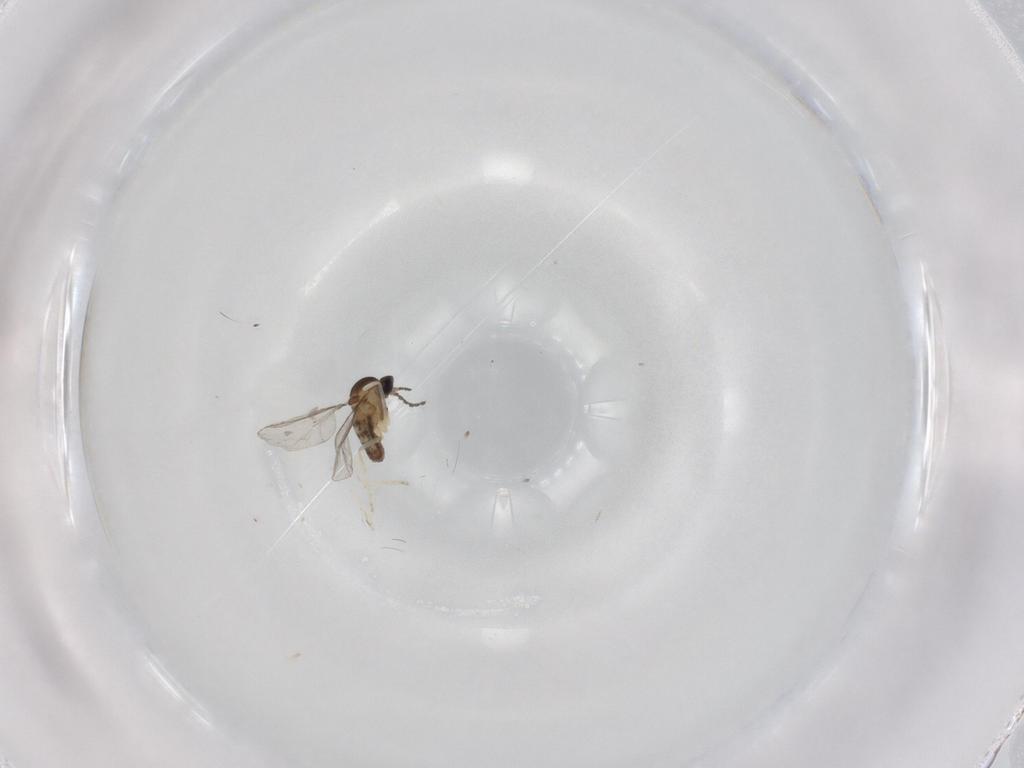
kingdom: Animalia
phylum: Arthropoda
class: Insecta
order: Diptera
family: Cecidomyiidae
